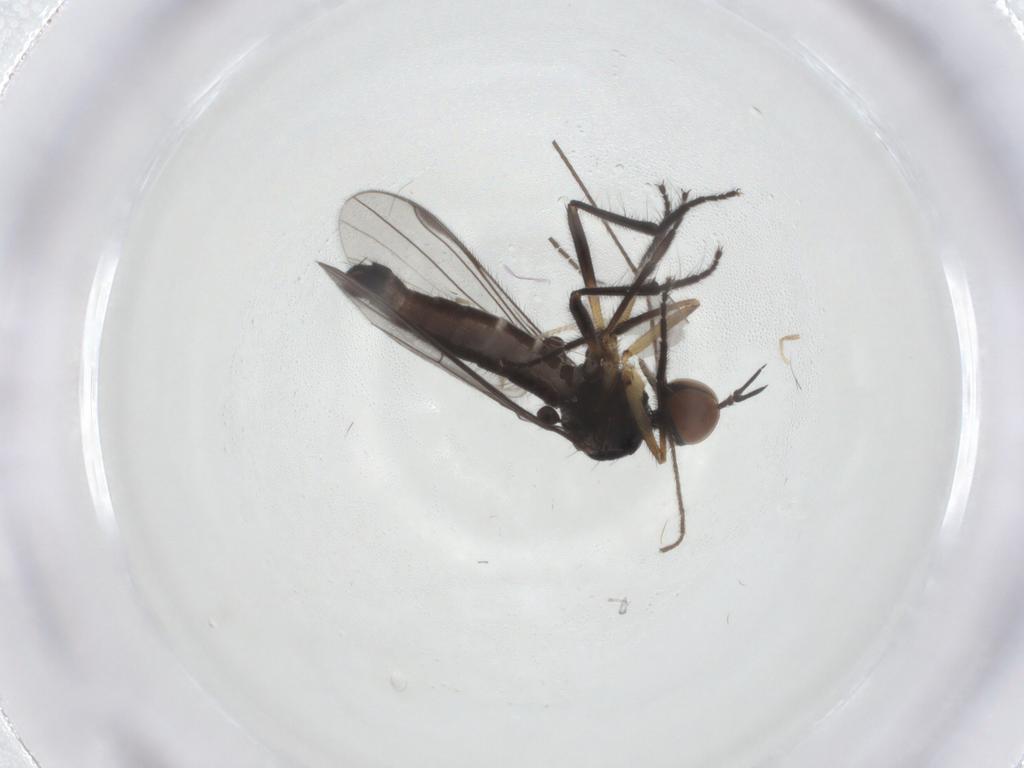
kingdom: Animalia
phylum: Arthropoda
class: Insecta
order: Diptera
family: Empididae
